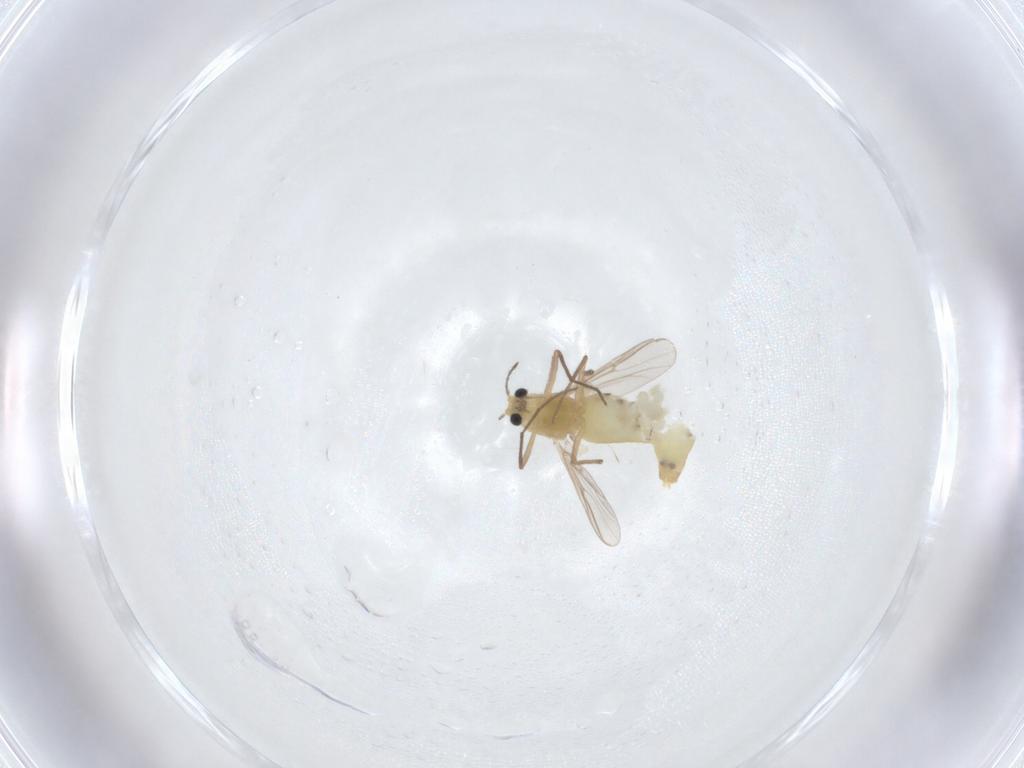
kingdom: Animalia
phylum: Arthropoda
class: Insecta
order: Diptera
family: Chironomidae
